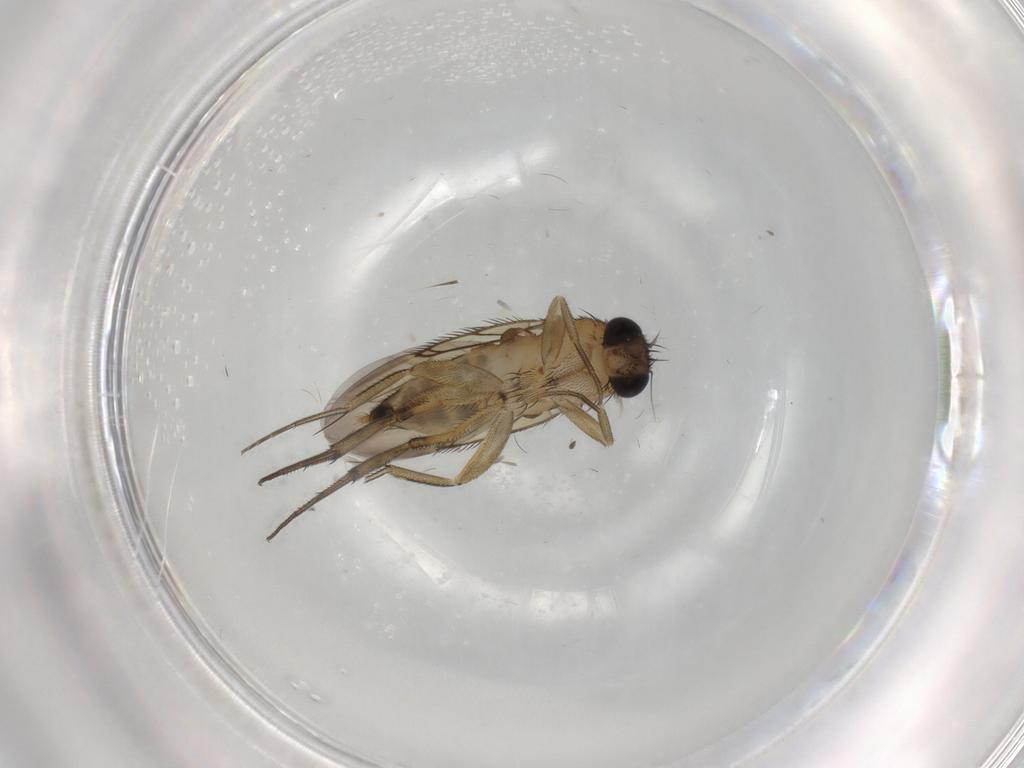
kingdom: Animalia
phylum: Arthropoda
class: Insecta
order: Diptera
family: Phoridae
